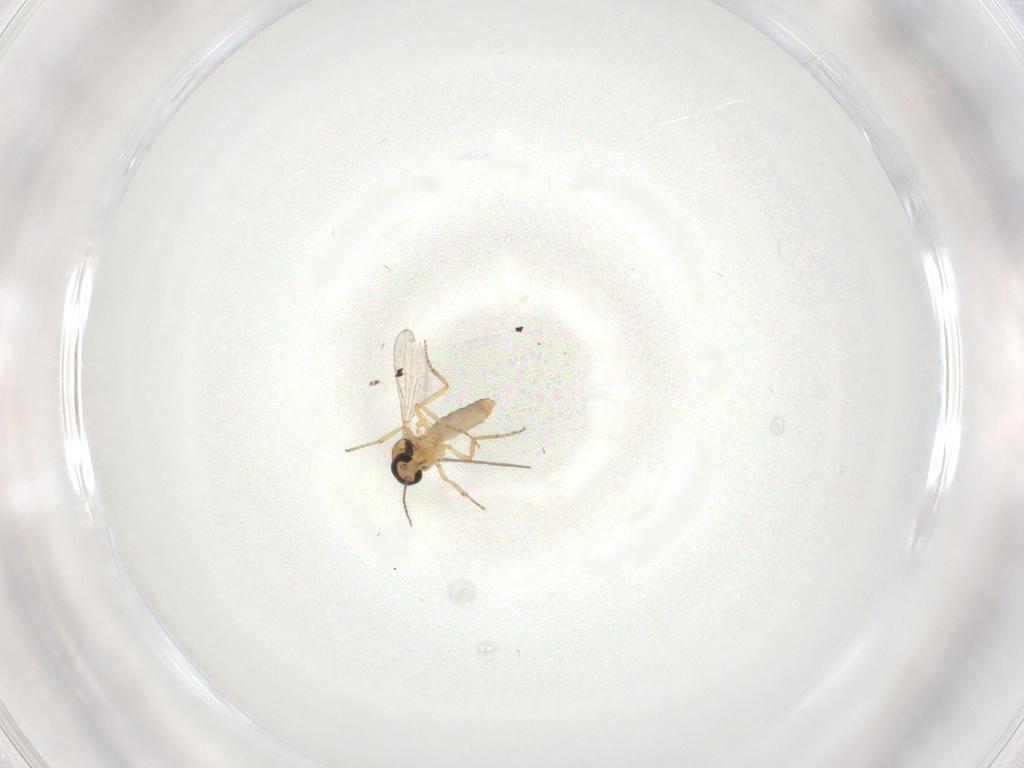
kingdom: Animalia
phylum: Arthropoda
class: Insecta
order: Diptera
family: Ceratopogonidae
